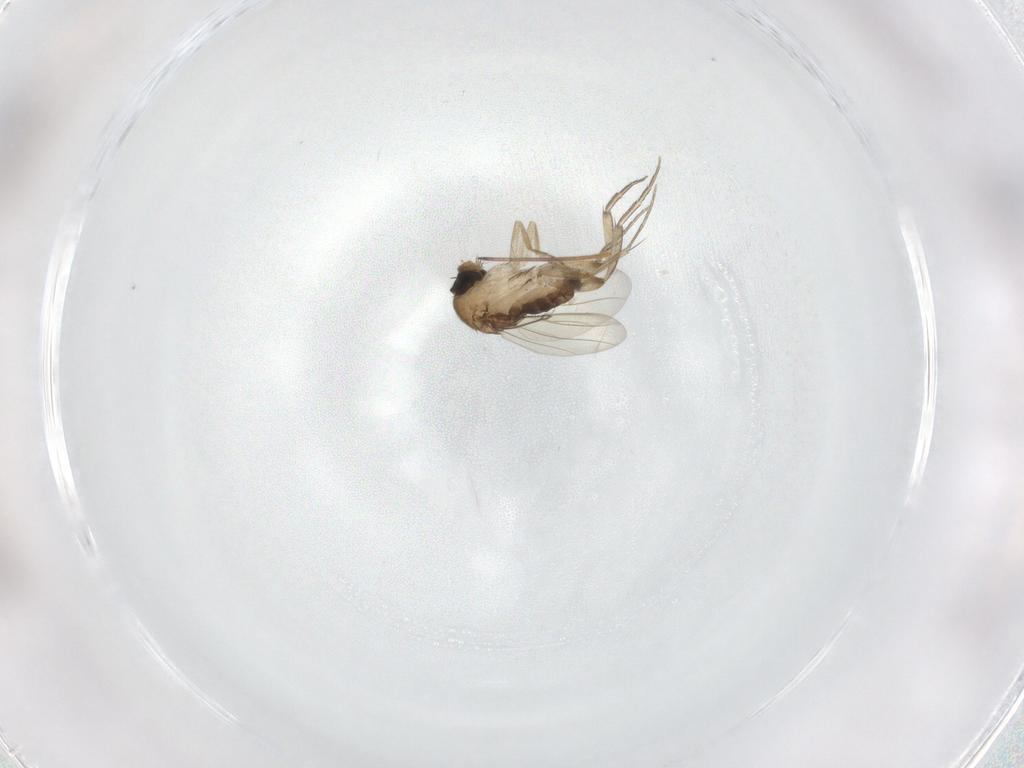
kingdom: Animalia
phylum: Arthropoda
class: Insecta
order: Diptera
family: Phoridae
